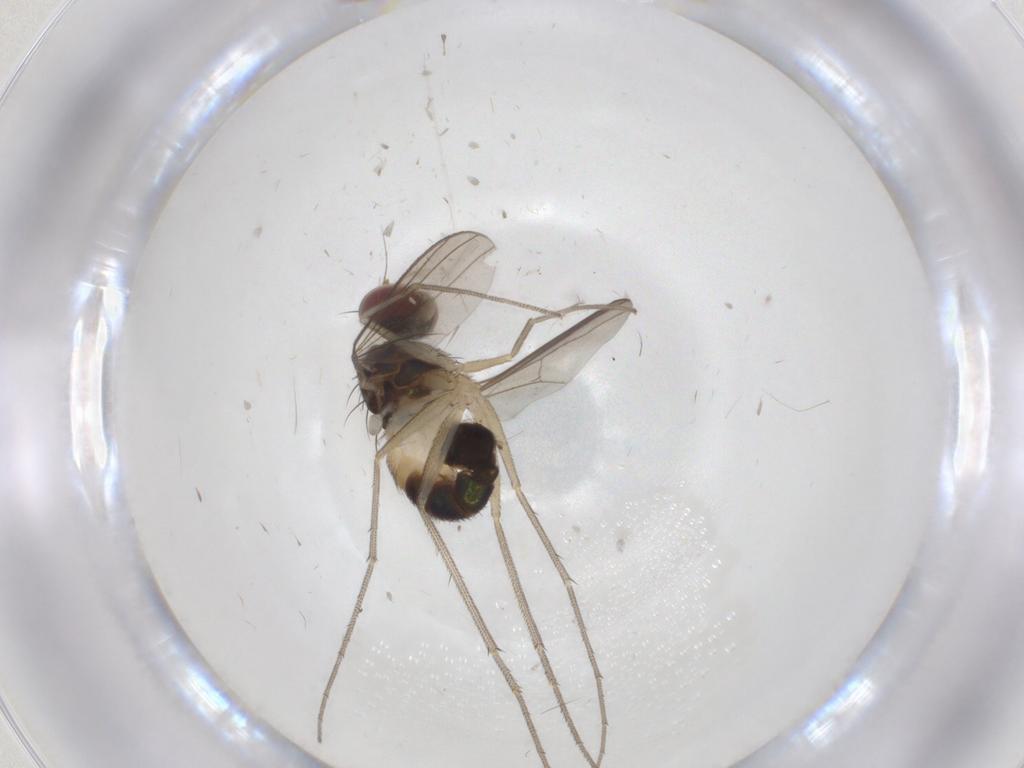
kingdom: Animalia
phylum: Arthropoda
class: Insecta
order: Diptera
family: Dolichopodidae
